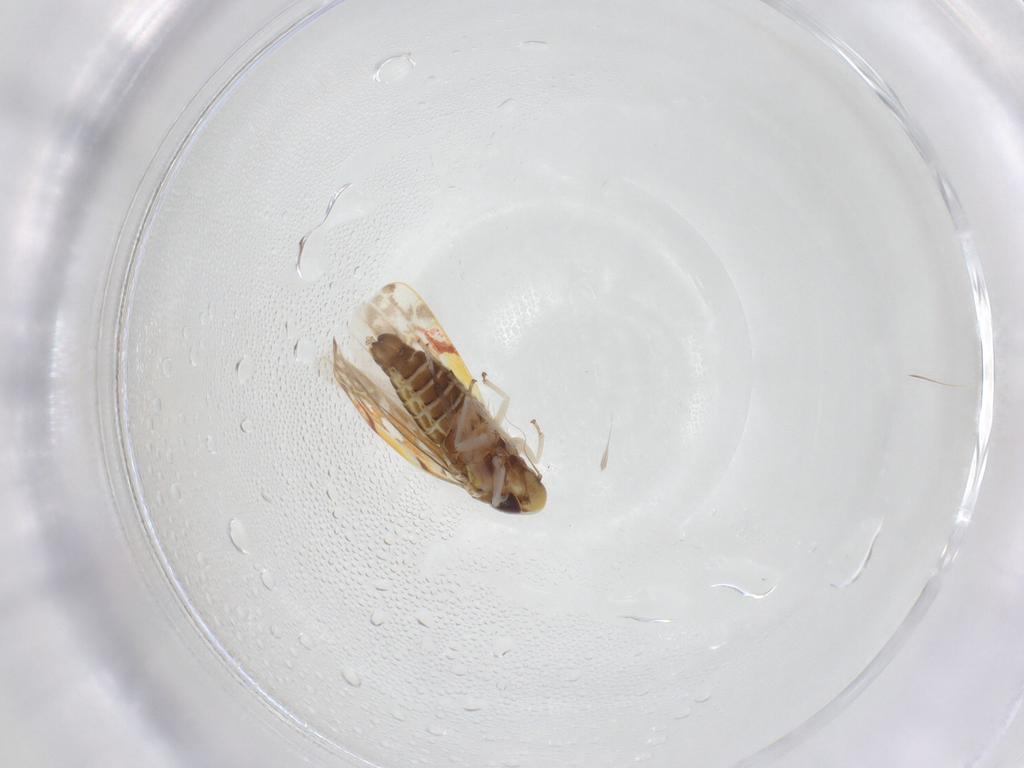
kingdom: Animalia
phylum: Arthropoda
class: Insecta
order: Hemiptera
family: Cicadellidae
